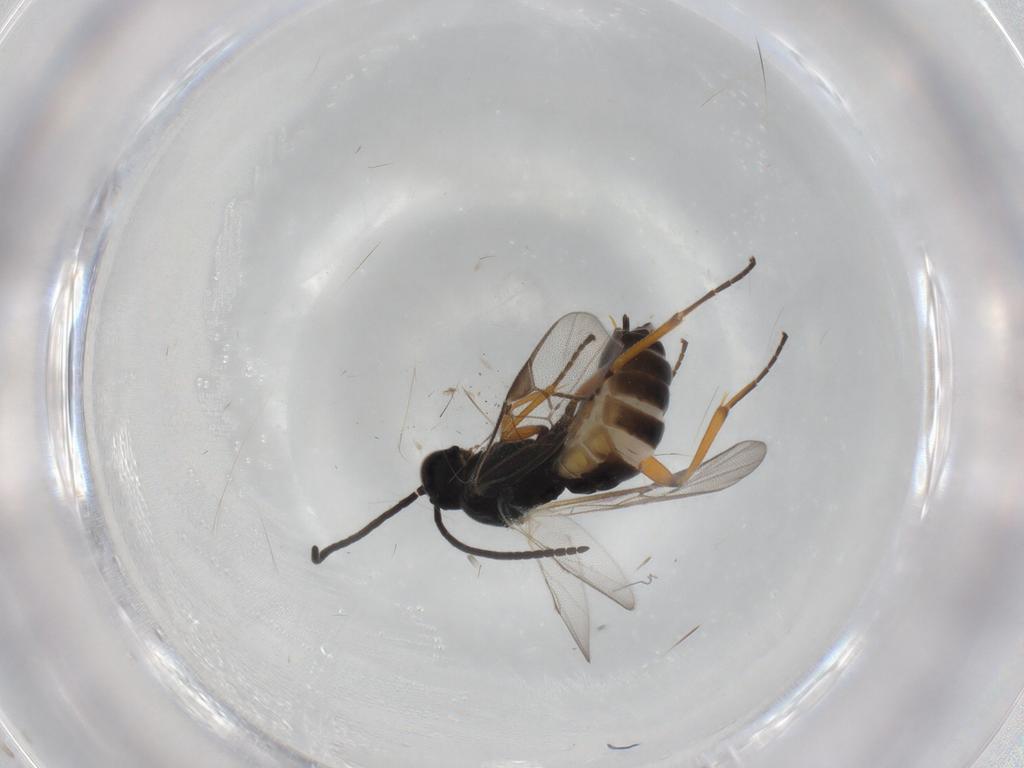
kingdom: Animalia
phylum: Arthropoda
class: Insecta
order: Hymenoptera
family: Braconidae
